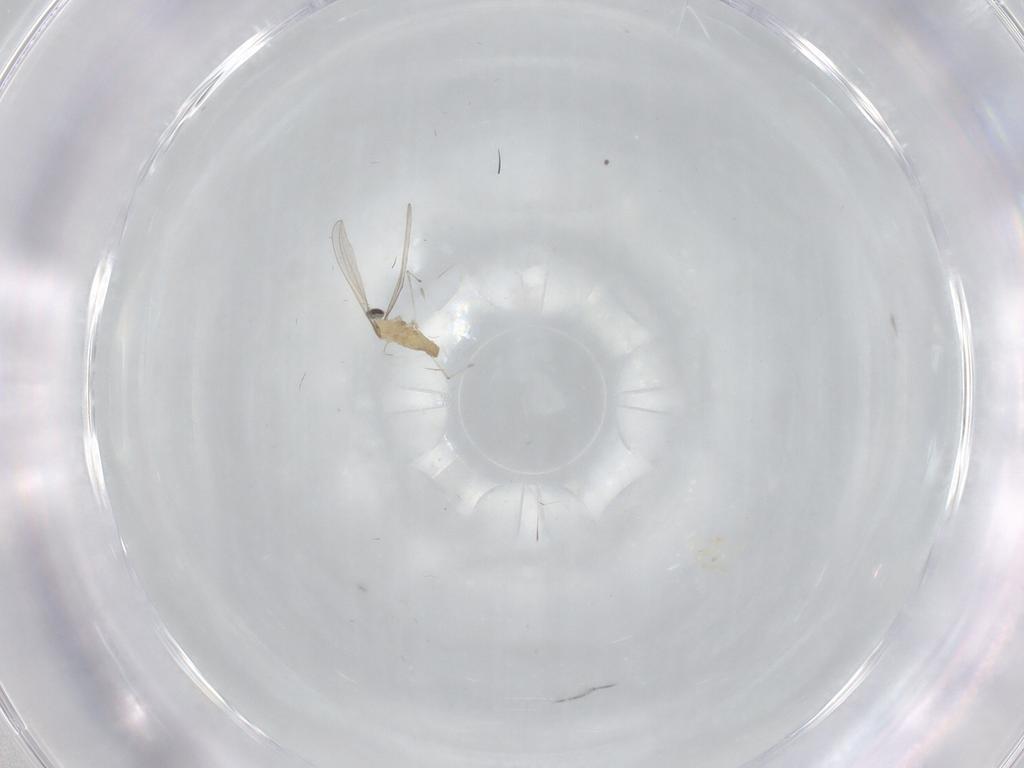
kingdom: Animalia
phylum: Arthropoda
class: Insecta
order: Diptera
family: Cecidomyiidae
